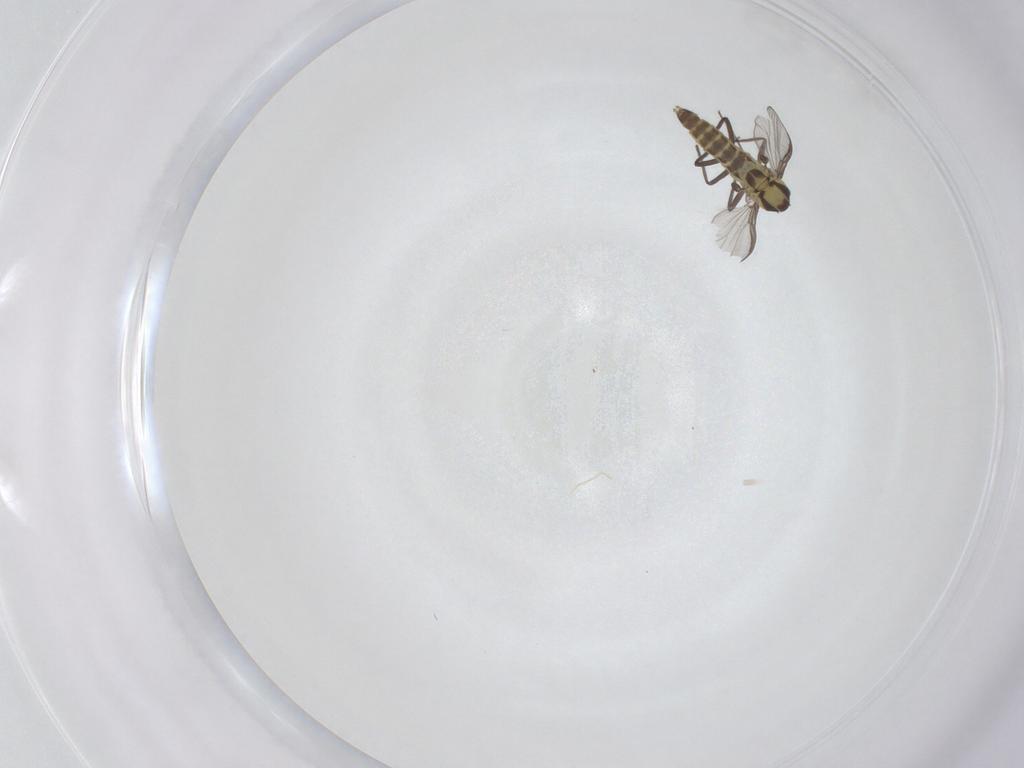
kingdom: Animalia
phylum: Arthropoda
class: Insecta
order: Diptera
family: Chironomidae
